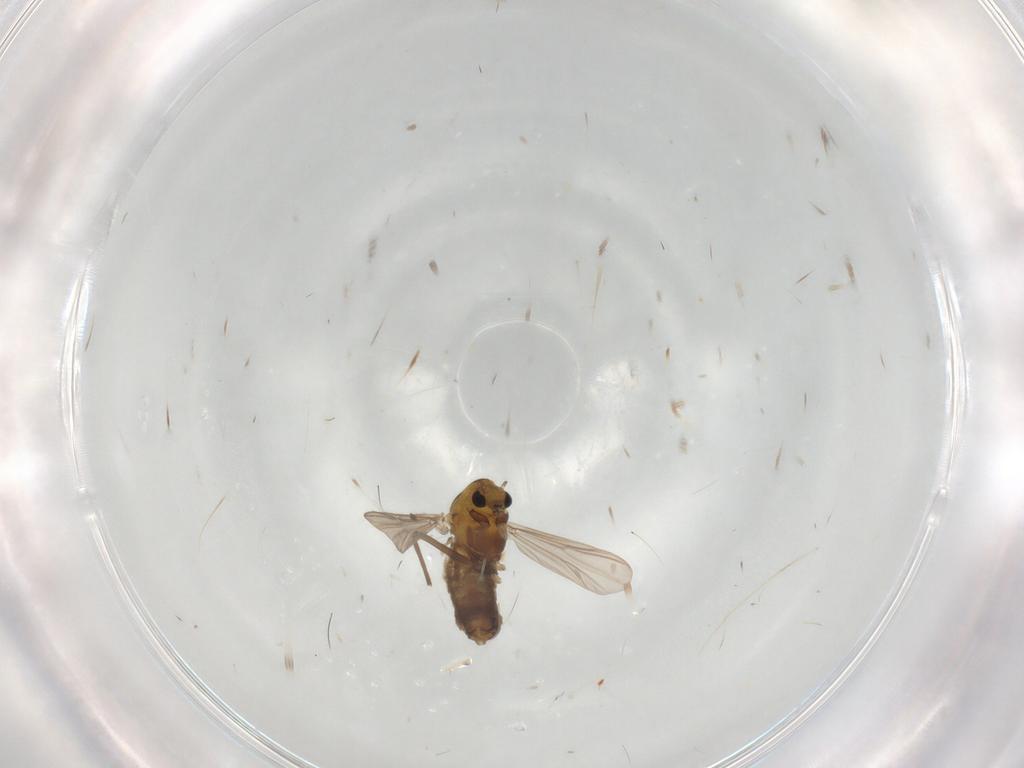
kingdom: Animalia
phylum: Arthropoda
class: Insecta
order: Diptera
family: Chironomidae
